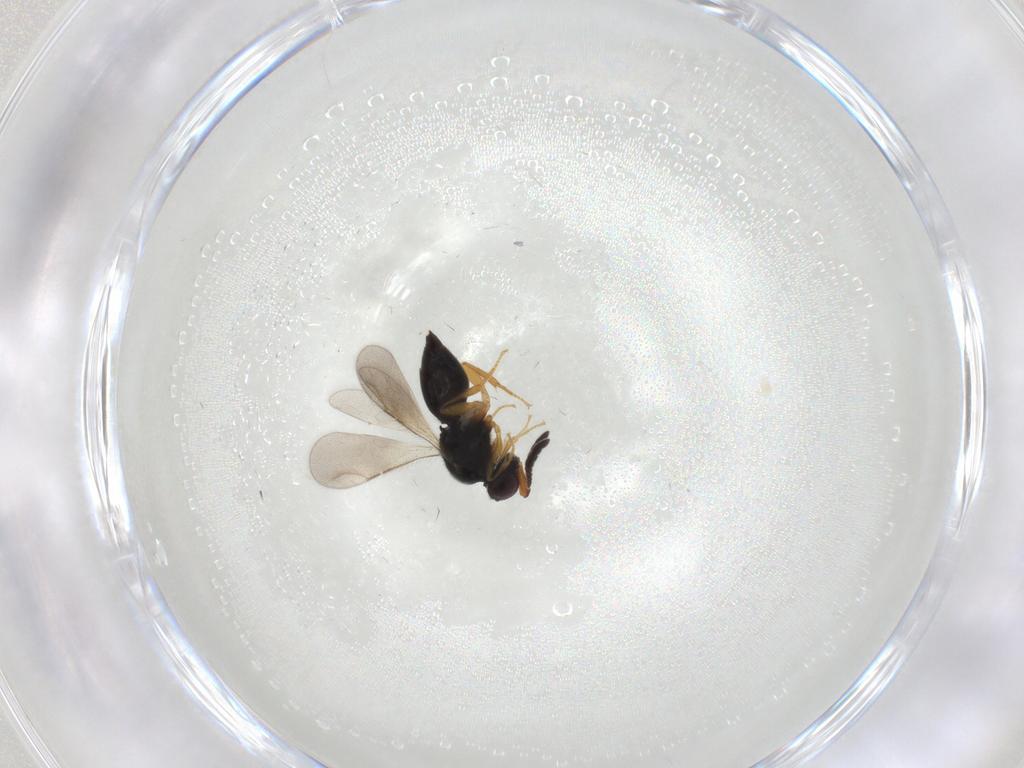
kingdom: Animalia
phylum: Arthropoda
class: Insecta
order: Hymenoptera
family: Ceraphronidae
